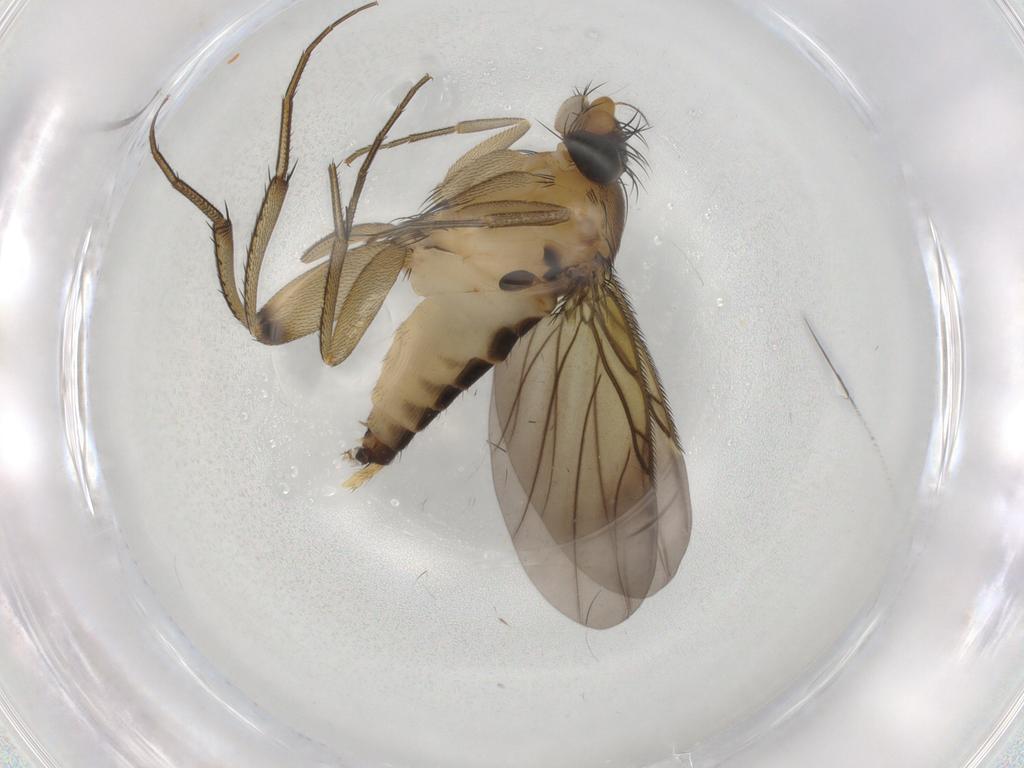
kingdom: Animalia
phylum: Arthropoda
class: Insecta
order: Diptera
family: Phoridae
